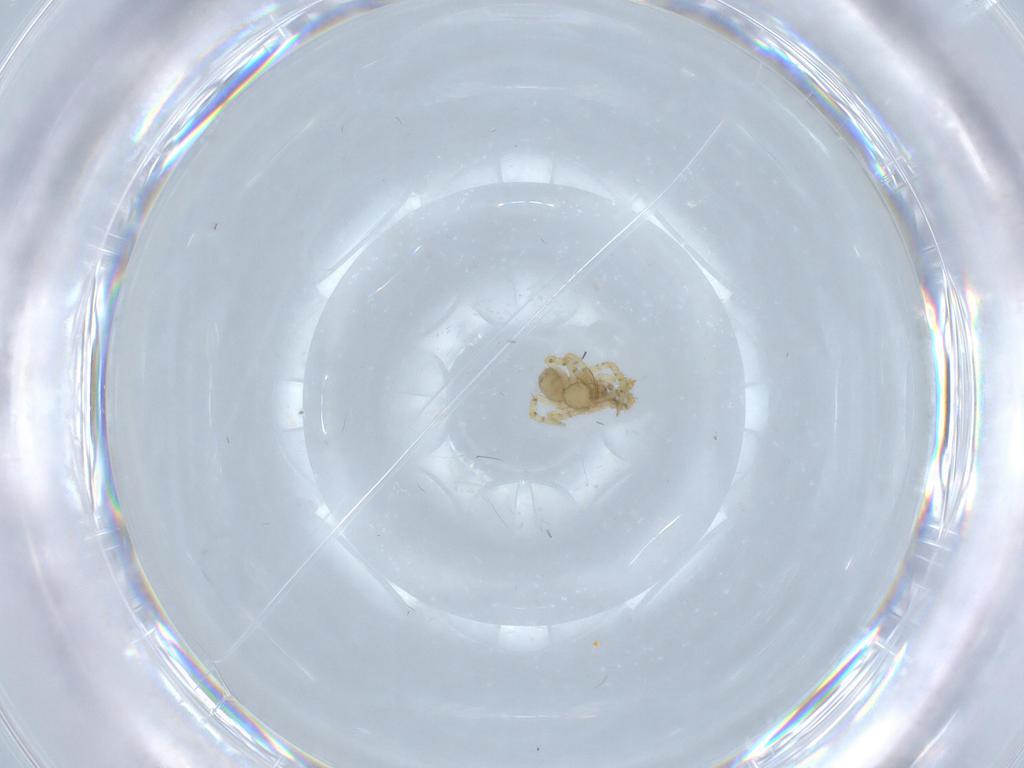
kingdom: Animalia
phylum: Arthropoda
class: Arachnida
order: Araneae
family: Theridiidae
